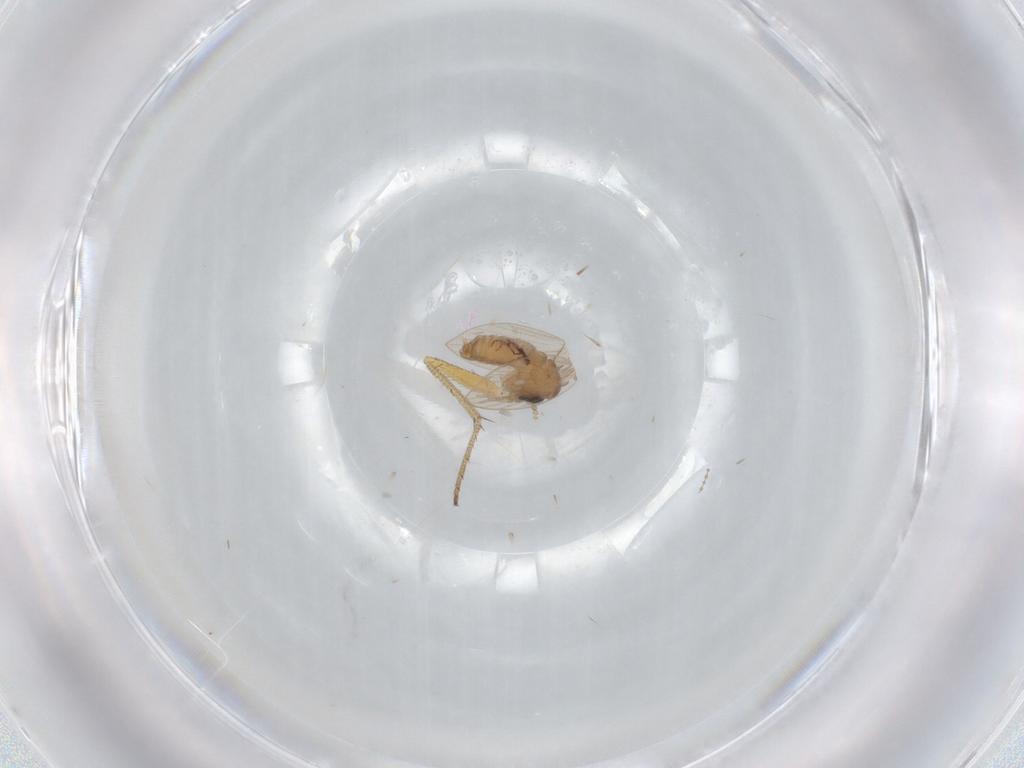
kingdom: Animalia
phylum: Arthropoda
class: Insecta
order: Diptera
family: Psychodidae
